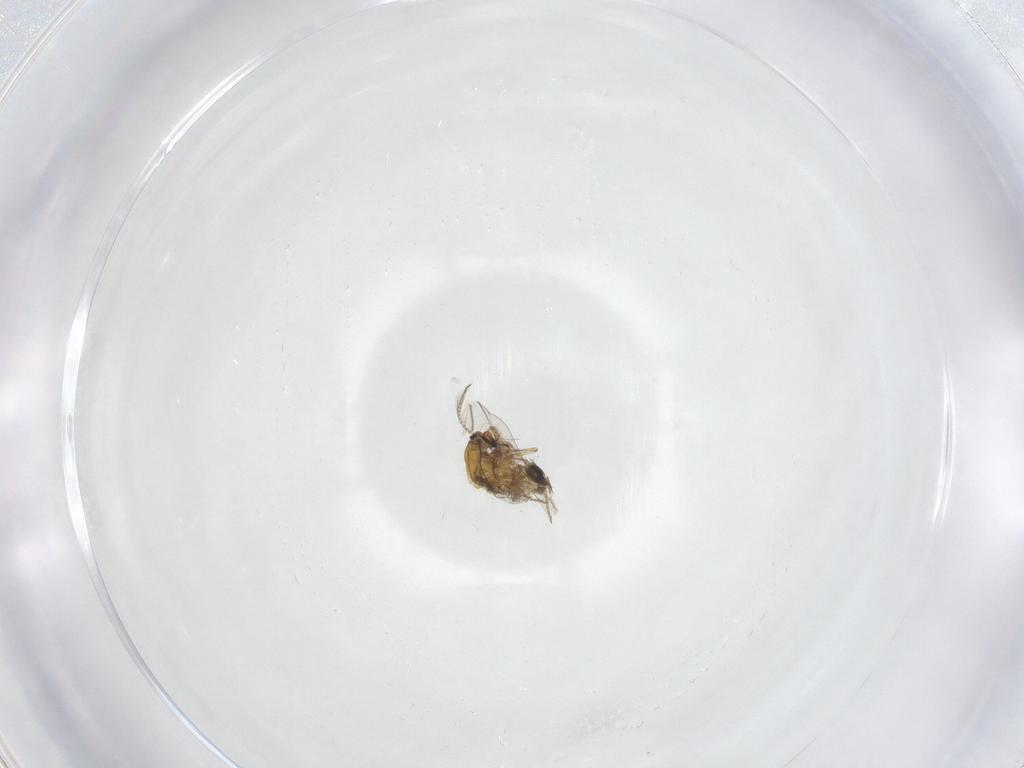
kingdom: Animalia
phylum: Arthropoda
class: Insecta
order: Diptera
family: Ceratopogonidae
